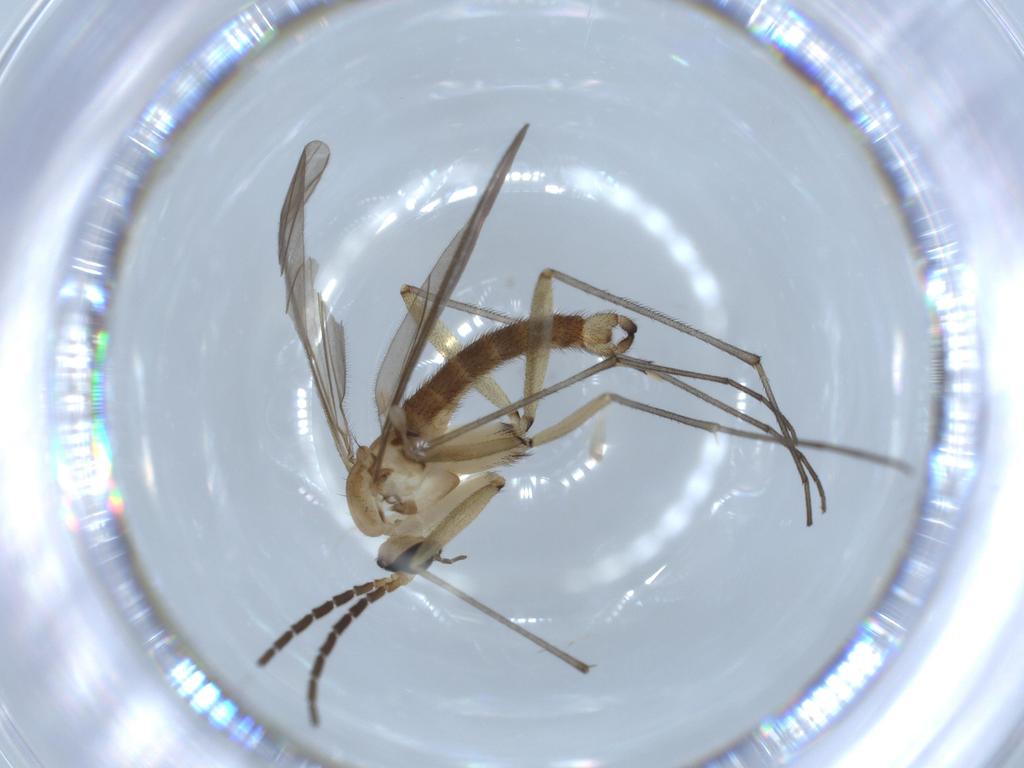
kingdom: Animalia
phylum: Arthropoda
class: Insecta
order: Diptera
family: Sciaridae
